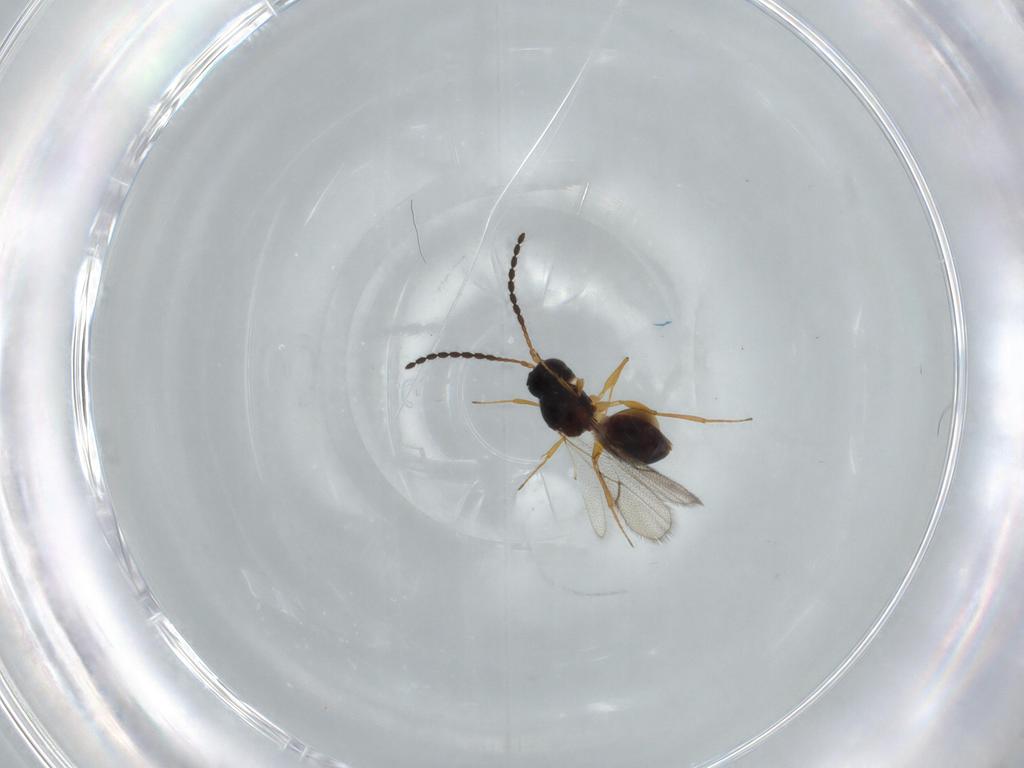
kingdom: Animalia
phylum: Arthropoda
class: Insecta
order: Hymenoptera
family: Figitidae
